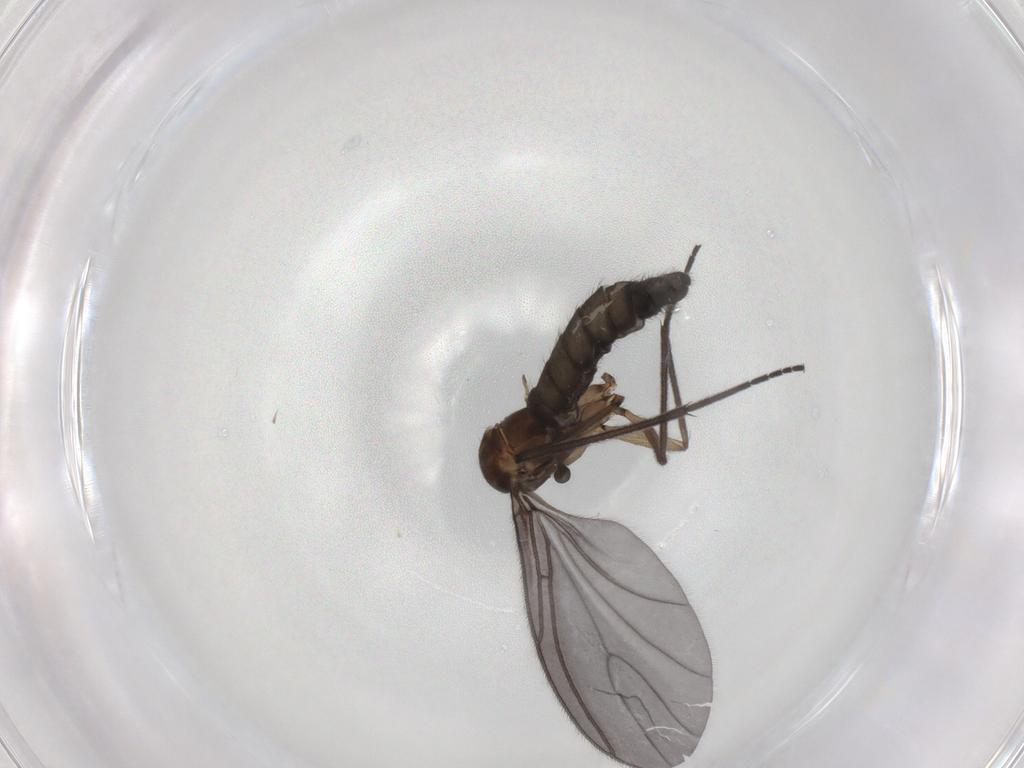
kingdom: Animalia
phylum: Arthropoda
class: Insecta
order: Diptera
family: Sciaridae
